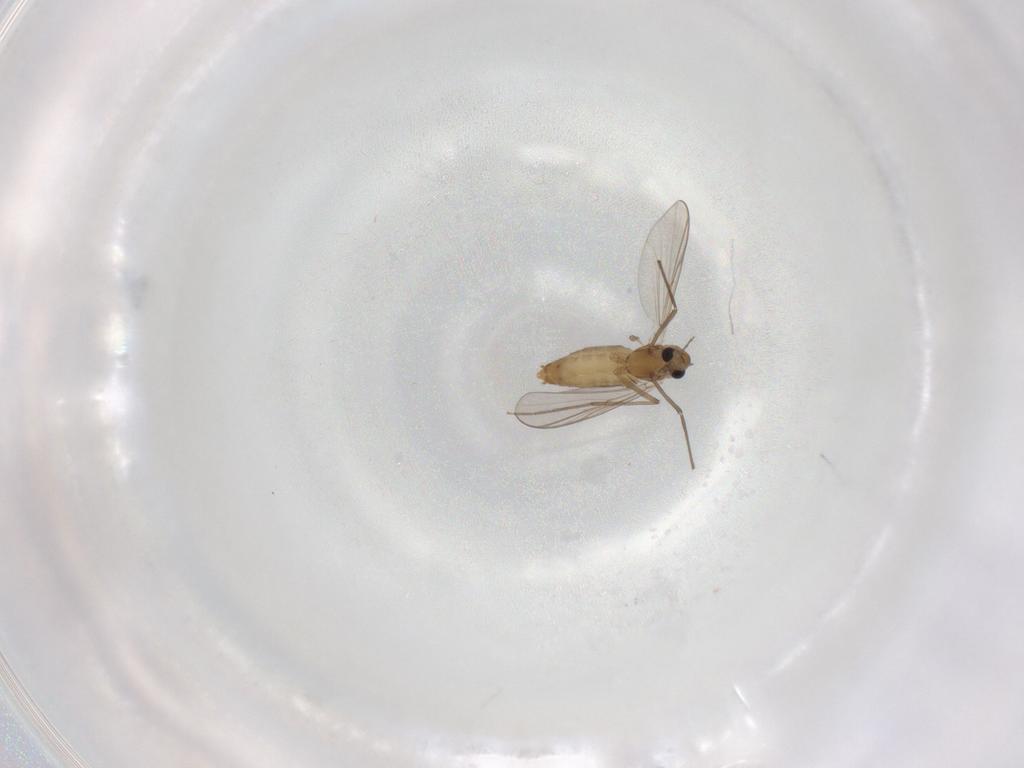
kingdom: Animalia
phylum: Arthropoda
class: Insecta
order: Diptera
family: Chironomidae
